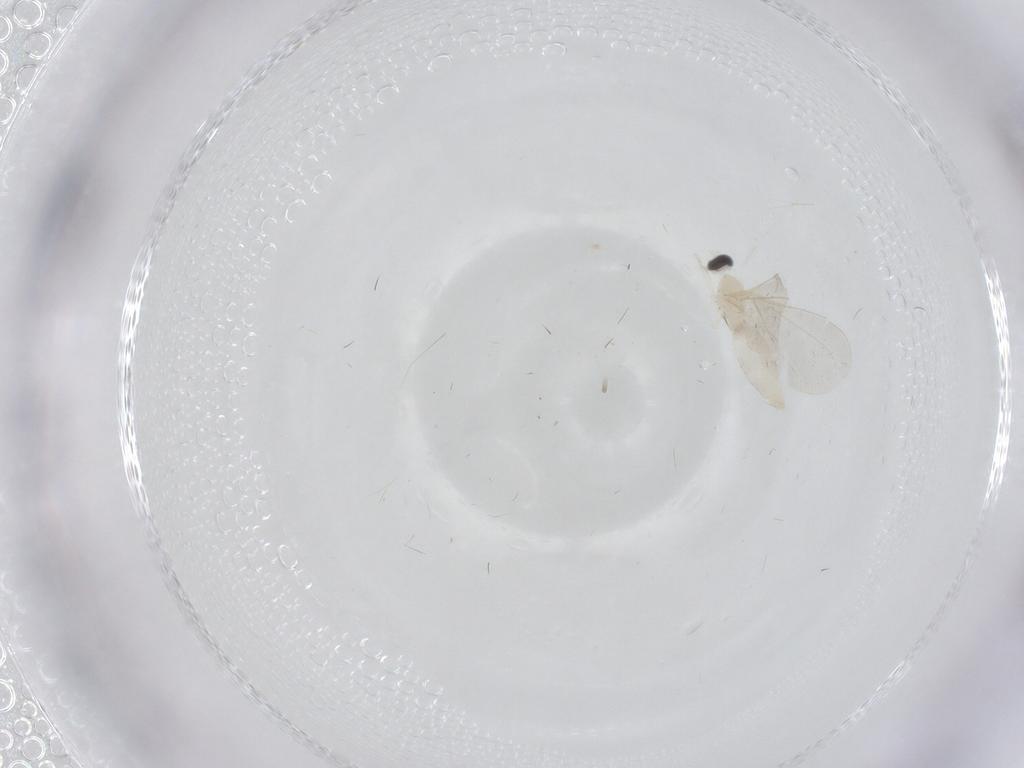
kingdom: Animalia
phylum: Arthropoda
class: Insecta
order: Diptera
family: Cecidomyiidae
